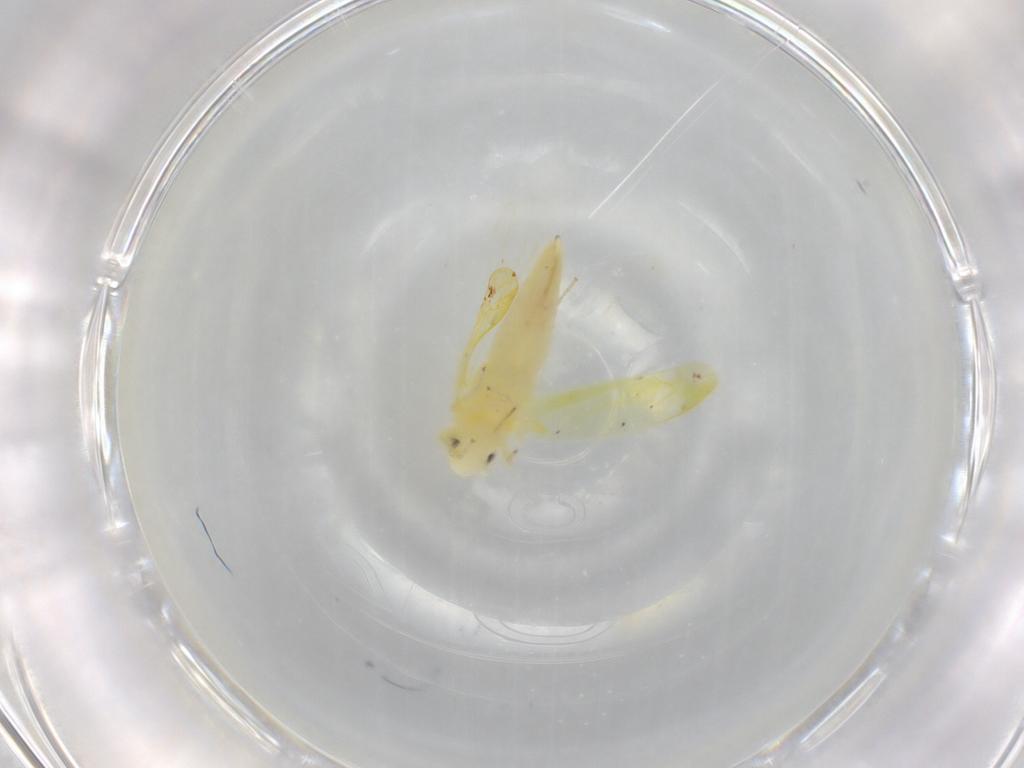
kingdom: Animalia
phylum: Arthropoda
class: Insecta
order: Hemiptera
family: Cicadellidae
